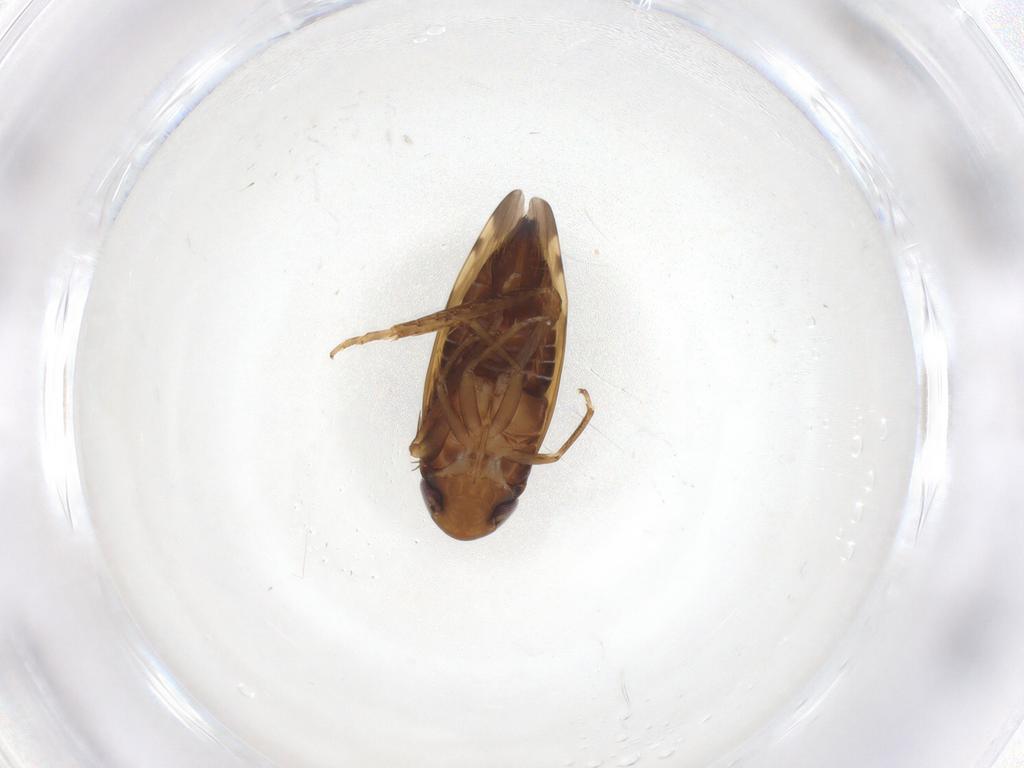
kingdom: Animalia
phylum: Arthropoda
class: Insecta
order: Hemiptera
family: Cicadellidae
